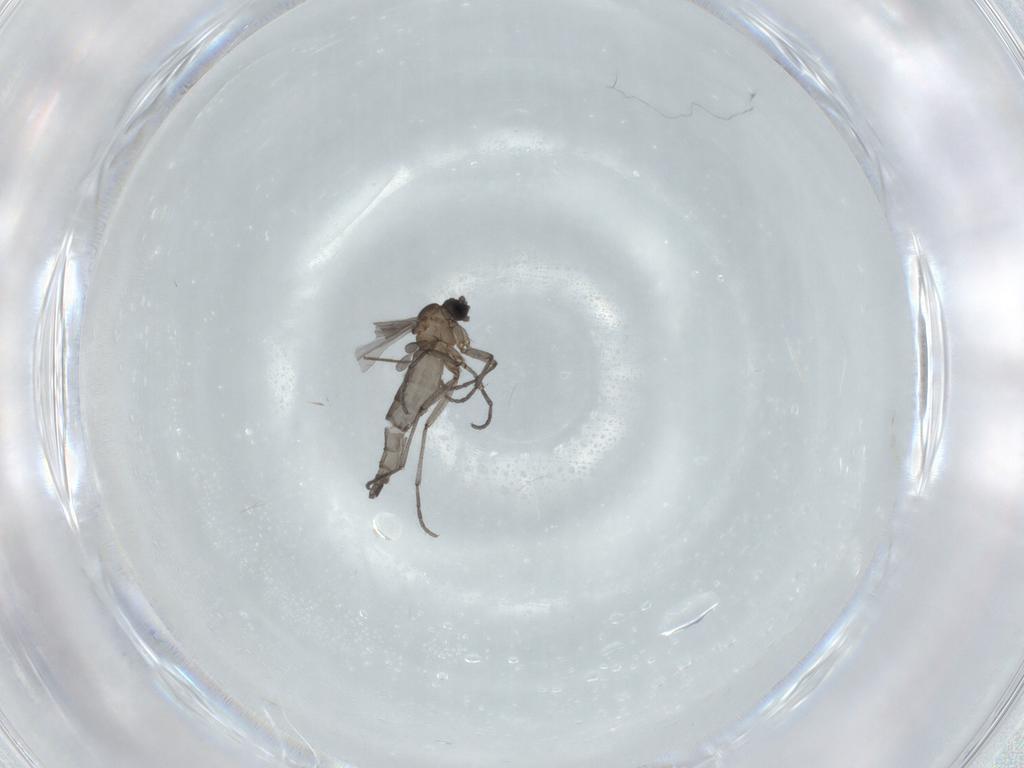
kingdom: Animalia
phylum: Arthropoda
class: Insecta
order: Diptera
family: Sciaridae
